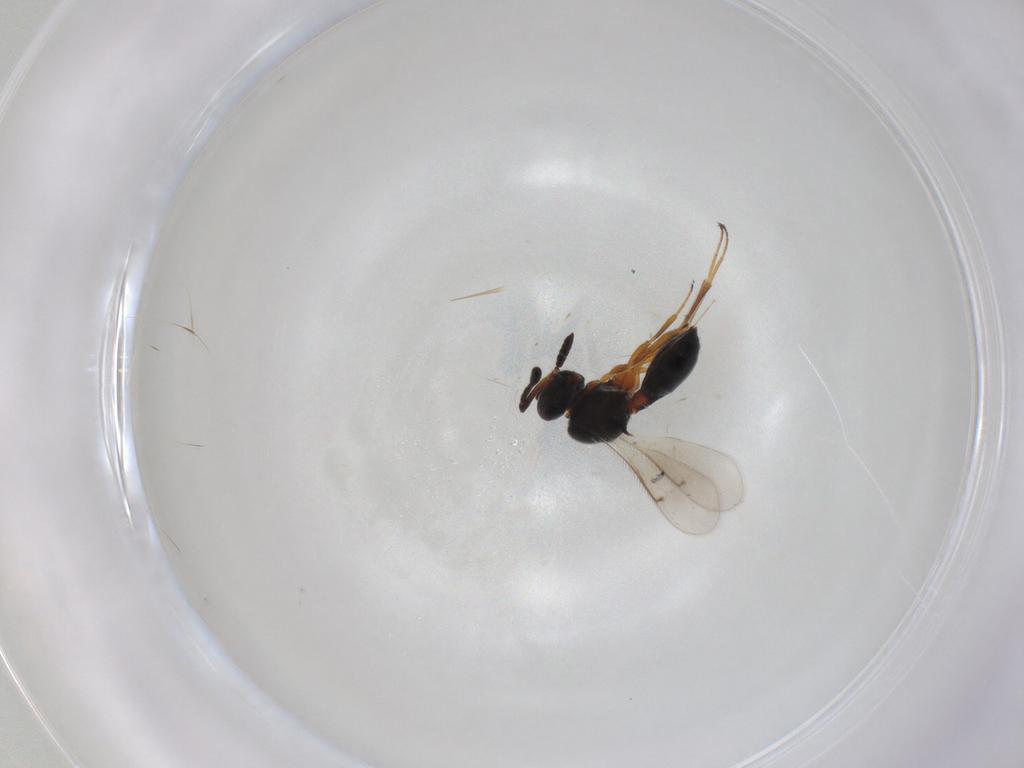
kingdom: Animalia
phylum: Arthropoda
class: Insecta
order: Hymenoptera
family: Scelionidae
